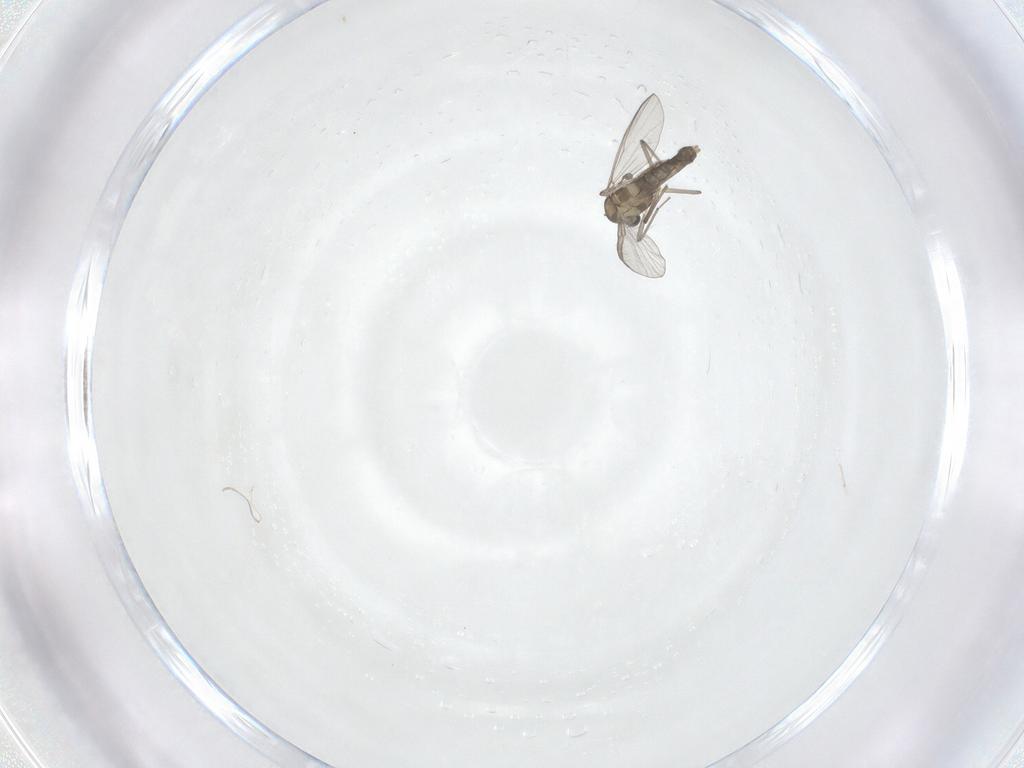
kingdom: Animalia
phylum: Arthropoda
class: Insecta
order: Diptera
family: Chironomidae
